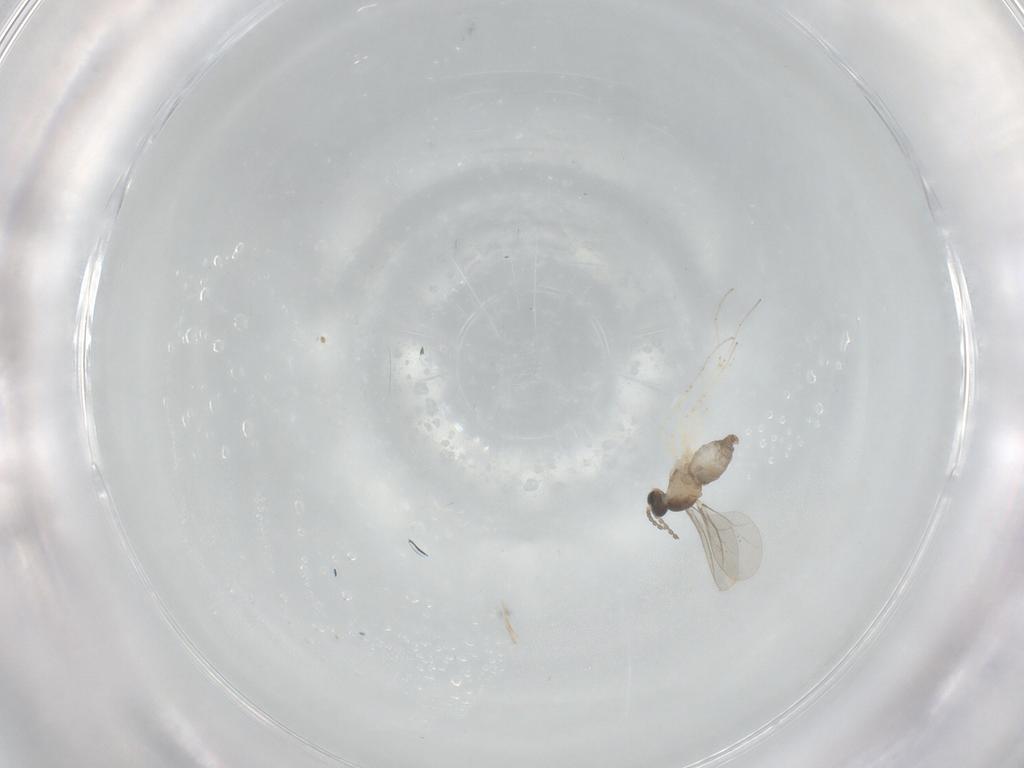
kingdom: Animalia
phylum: Arthropoda
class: Insecta
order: Diptera
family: Cecidomyiidae
